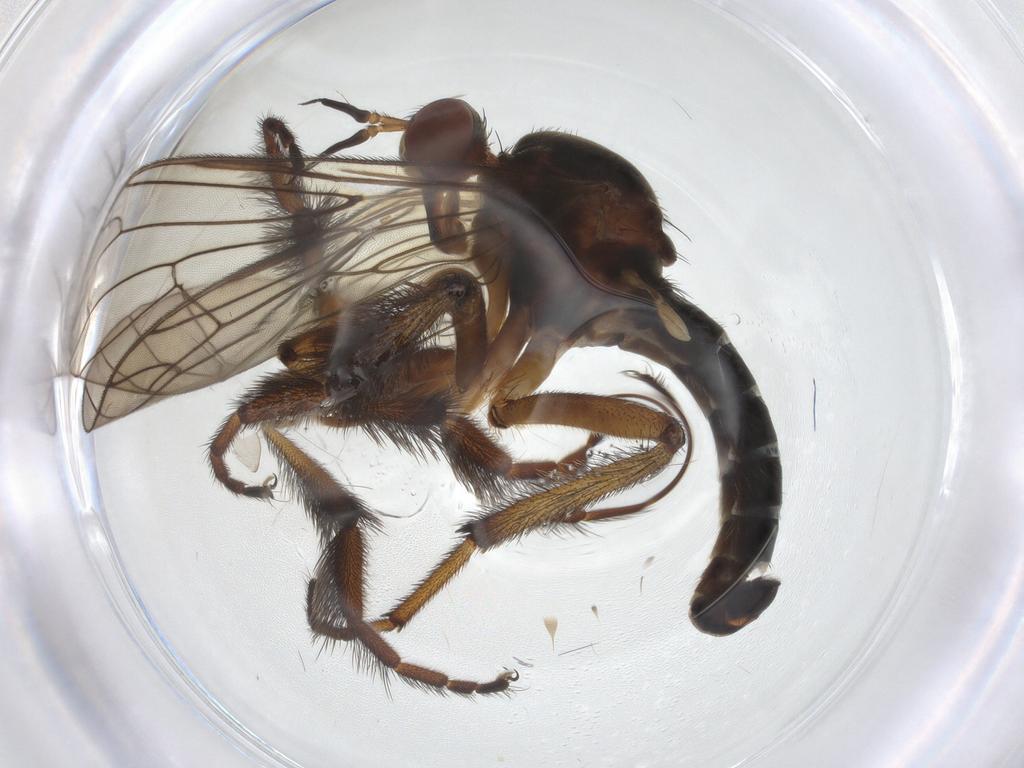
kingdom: Animalia
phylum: Arthropoda
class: Insecta
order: Diptera
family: Empididae
